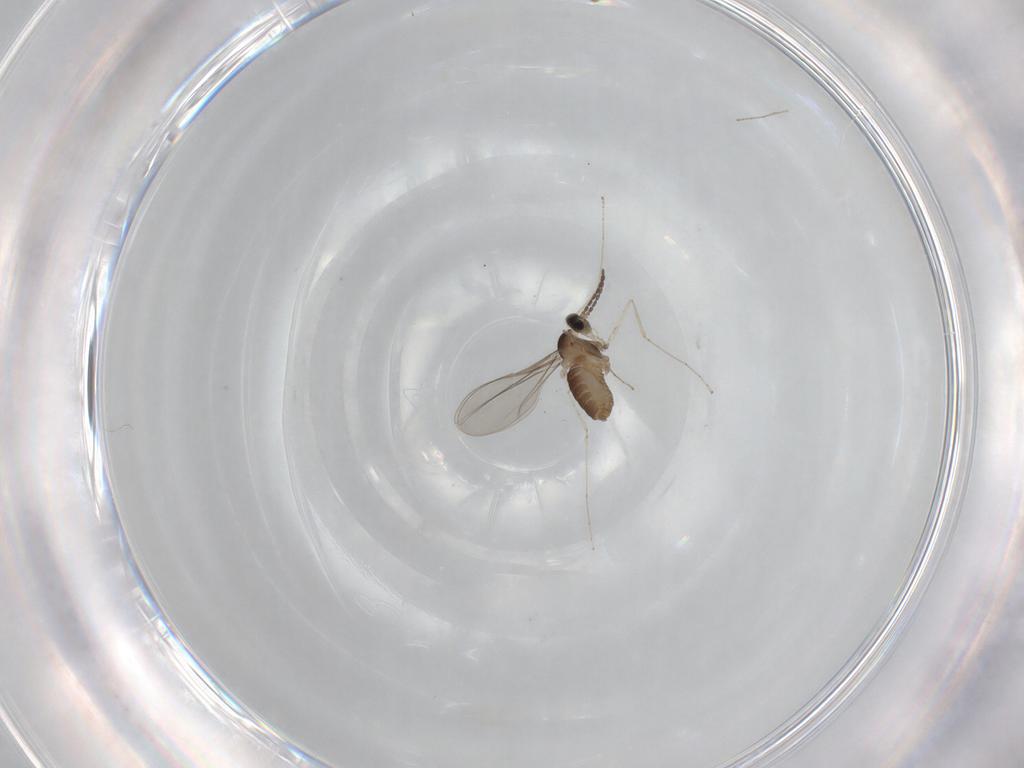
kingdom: Animalia
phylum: Arthropoda
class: Insecta
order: Diptera
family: Cecidomyiidae
